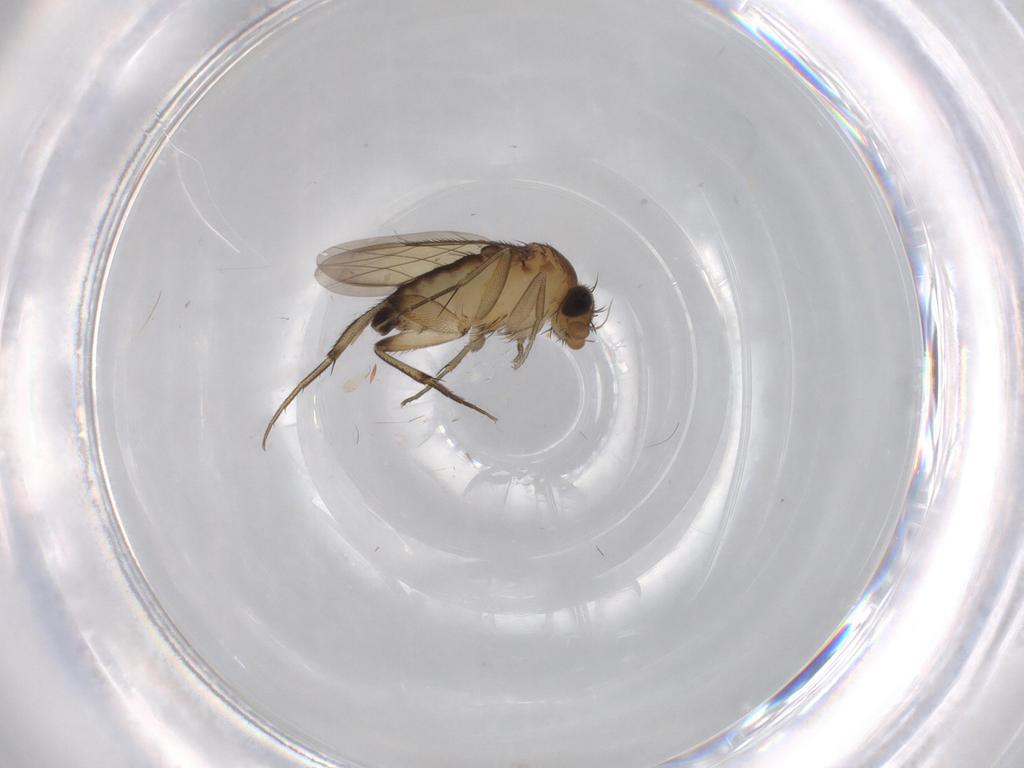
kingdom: Animalia
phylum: Arthropoda
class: Insecta
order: Diptera
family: Phoridae
